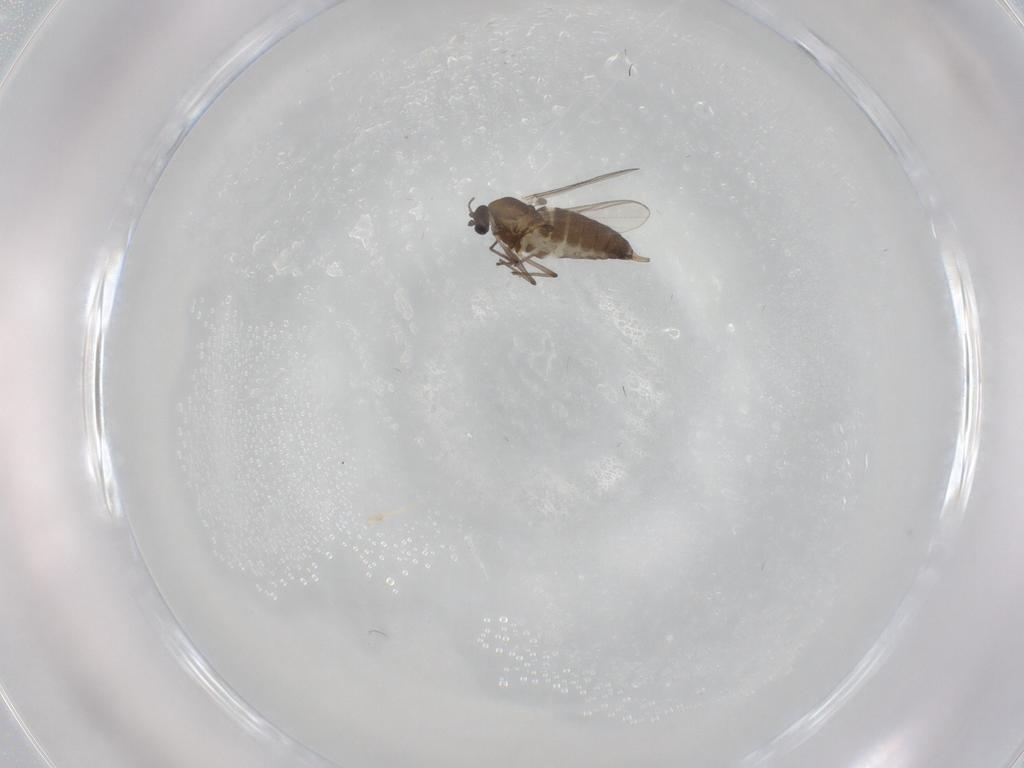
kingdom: Animalia
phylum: Arthropoda
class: Insecta
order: Diptera
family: Chironomidae
